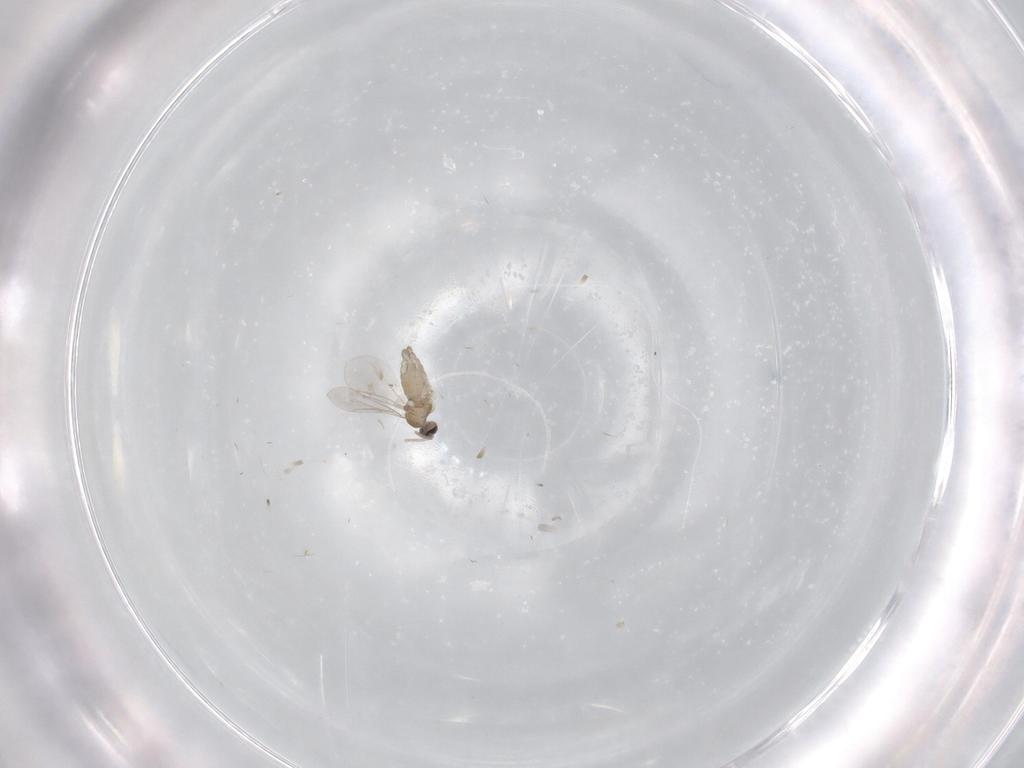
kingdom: Animalia
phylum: Arthropoda
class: Insecta
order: Diptera
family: Cecidomyiidae
